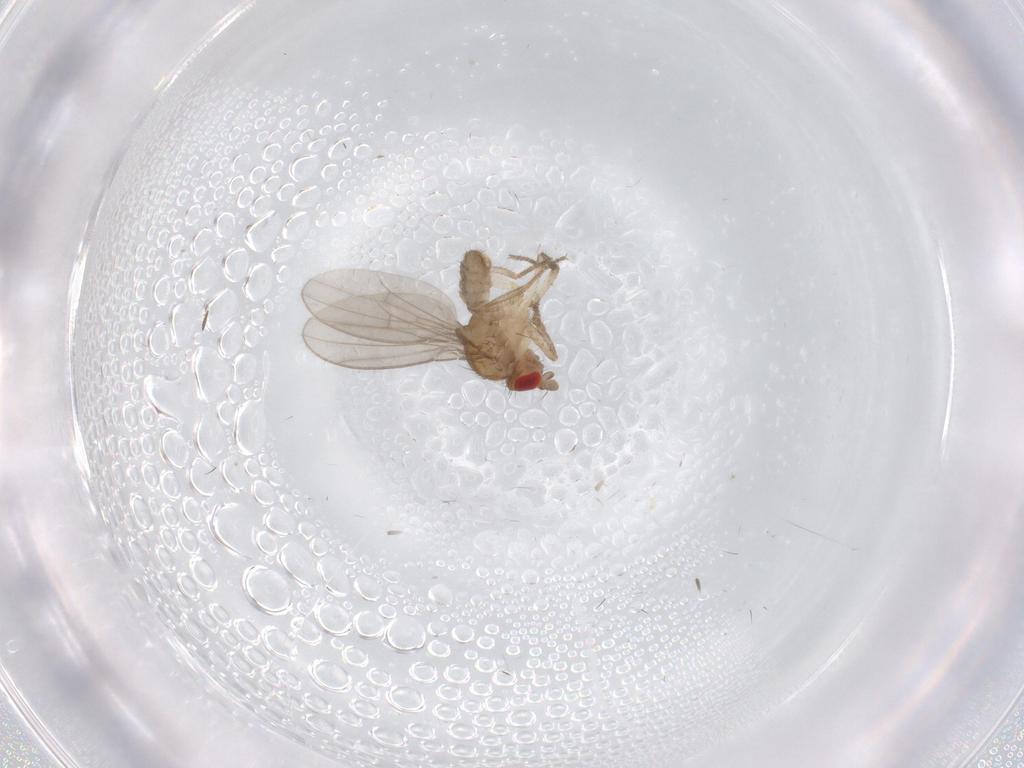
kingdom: Animalia
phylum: Arthropoda
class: Insecta
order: Diptera
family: Drosophilidae
